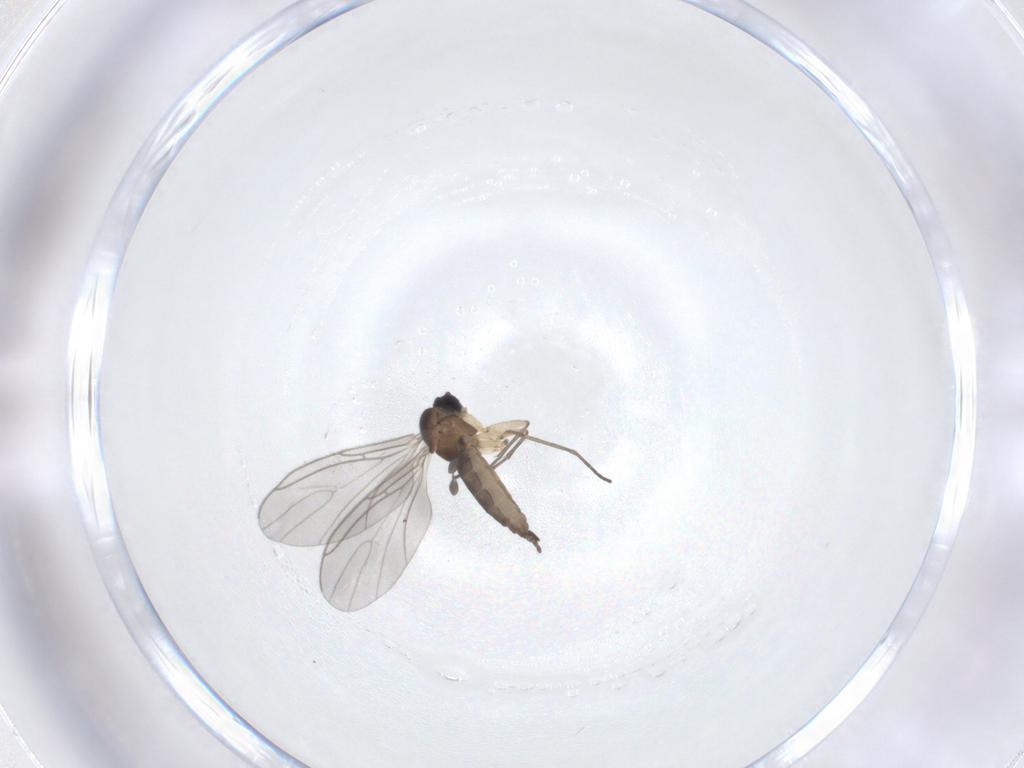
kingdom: Animalia
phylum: Arthropoda
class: Insecta
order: Diptera
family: Sciaridae
